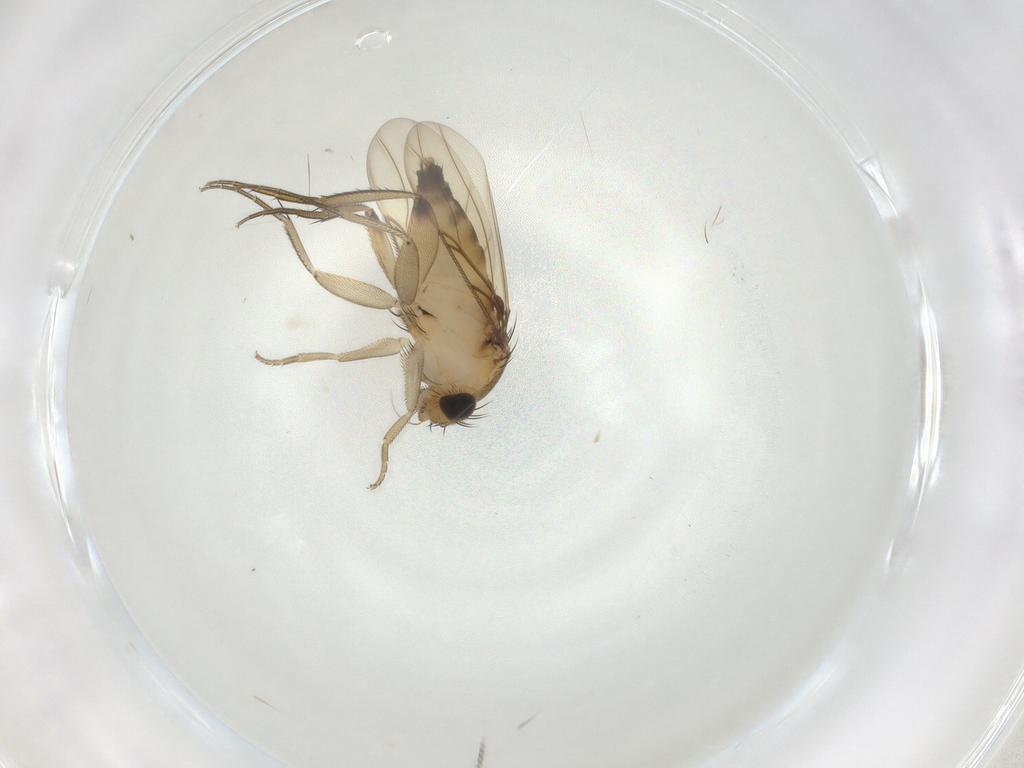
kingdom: Animalia
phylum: Arthropoda
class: Insecta
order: Diptera
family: Phoridae
